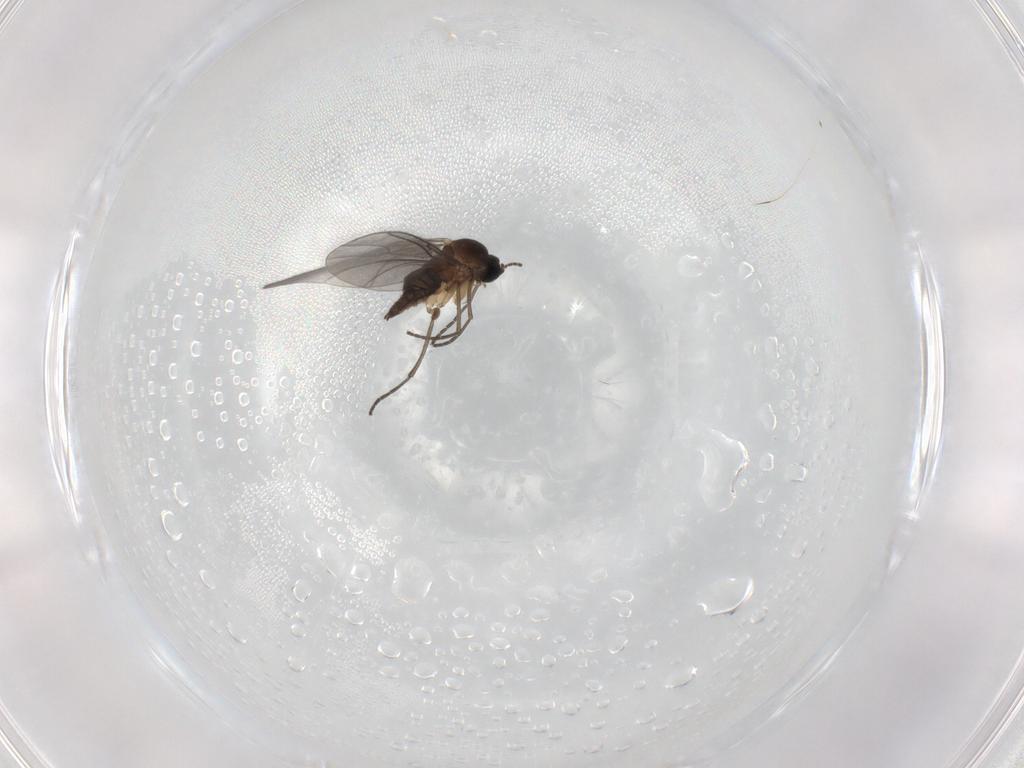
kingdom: Animalia
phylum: Arthropoda
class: Insecta
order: Diptera
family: Sciaridae
